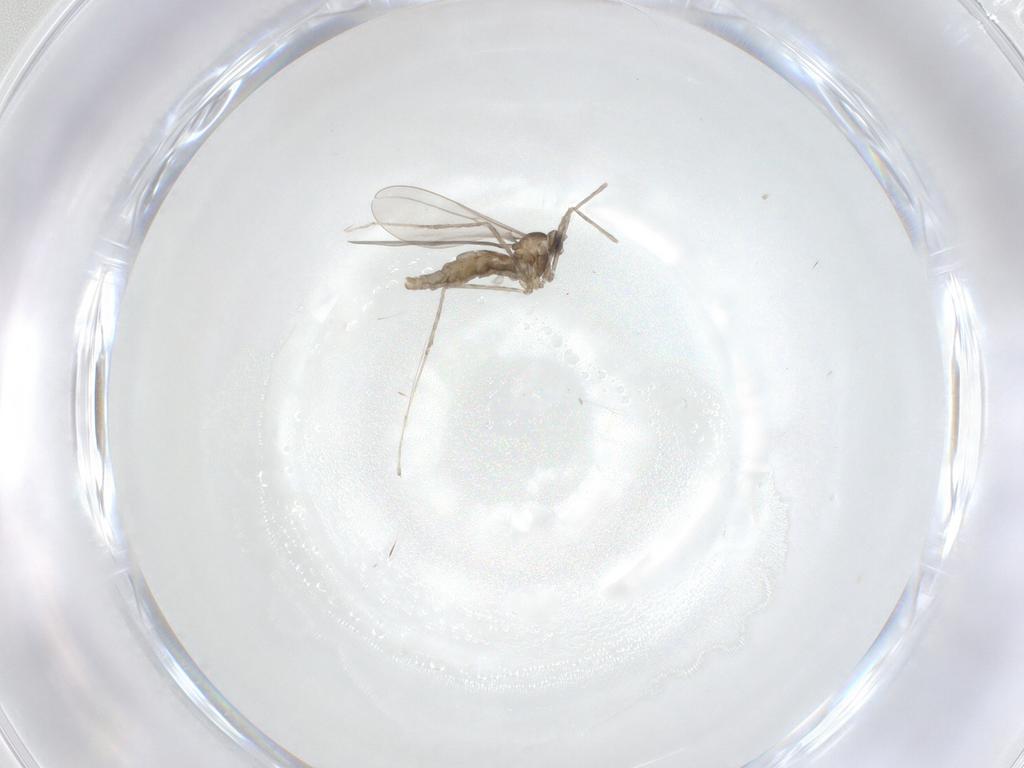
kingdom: Animalia
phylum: Arthropoda
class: Insecta
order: Diptera
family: Cecidomyiidae
